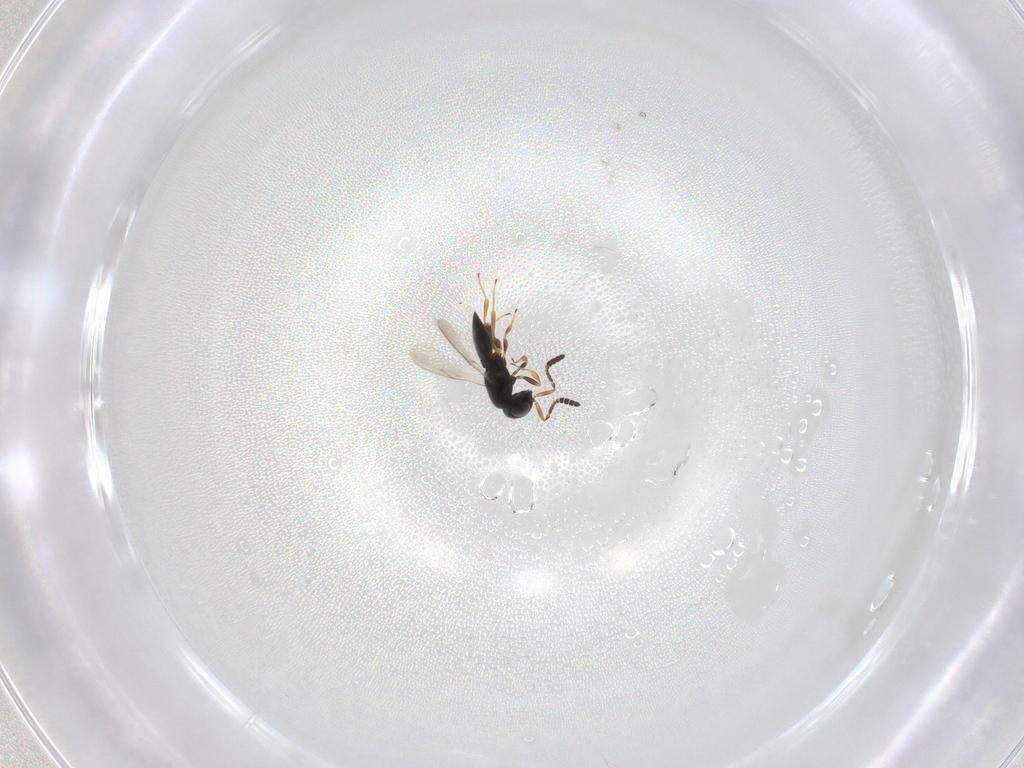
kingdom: Animalia
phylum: Arthropoda
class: Insecta
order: Hymenoptera
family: Scelionidae
